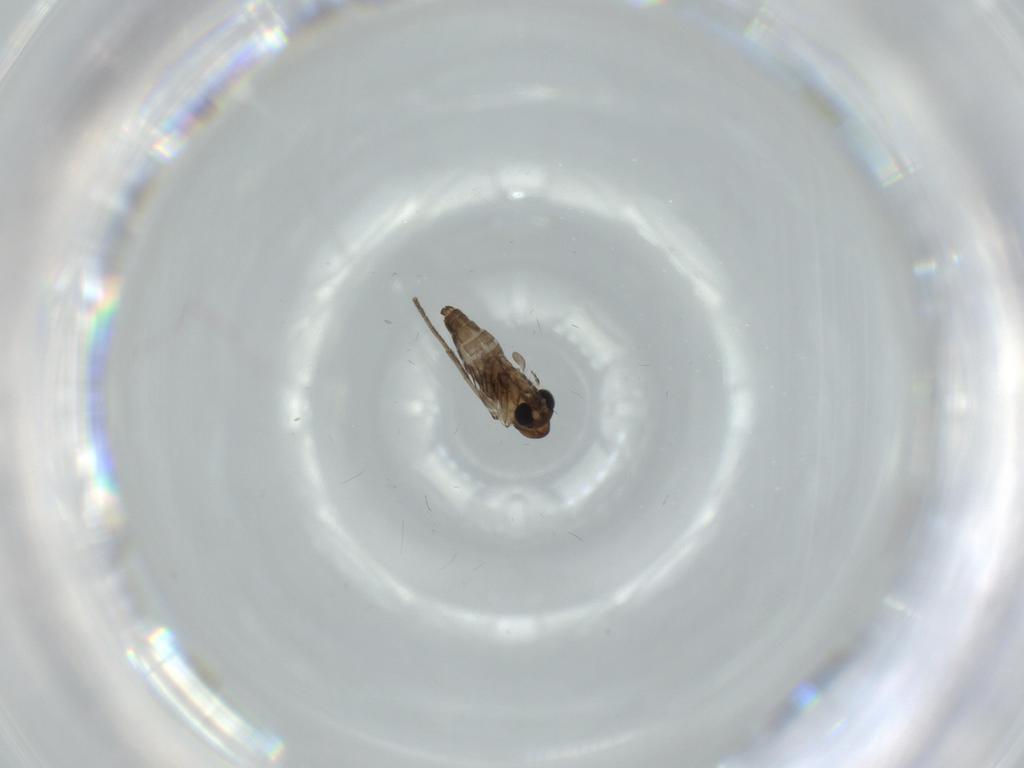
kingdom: Animalia
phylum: Arthropoda
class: Insecta
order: Diptera
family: Psychodidae
